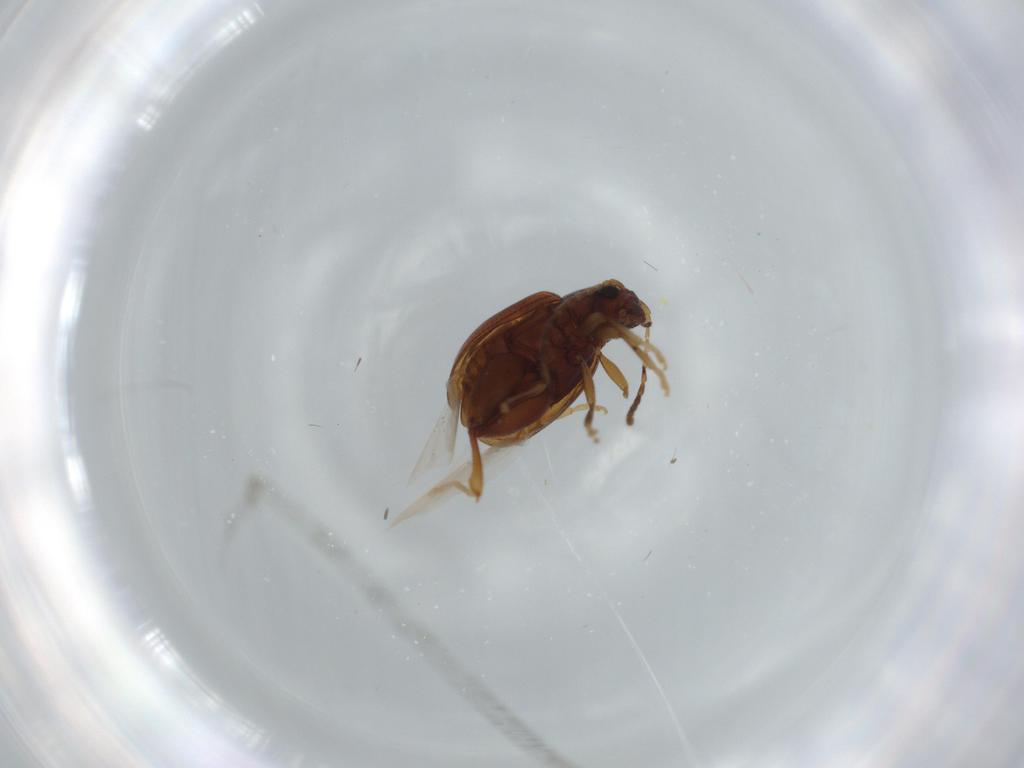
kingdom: Animalia
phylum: Arthropoda
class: Insecta
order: Coleoptera
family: Chrysomelidae
